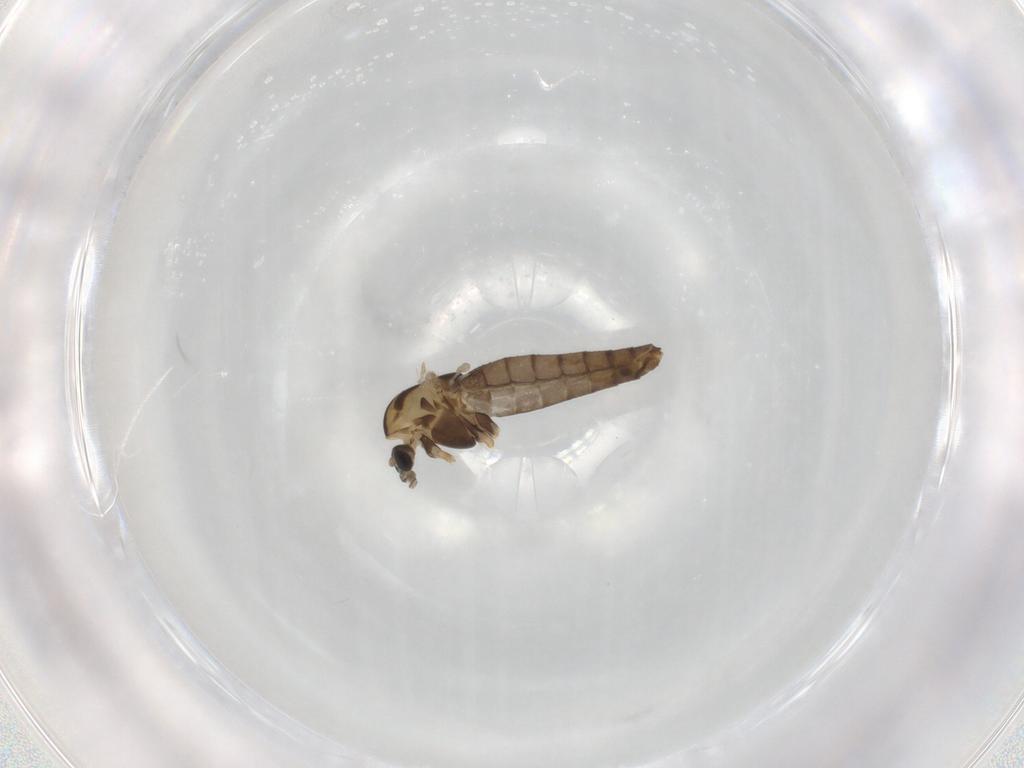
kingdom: Animalia
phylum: Arthropoda
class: Insecta
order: Diptera
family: Chironomidae
